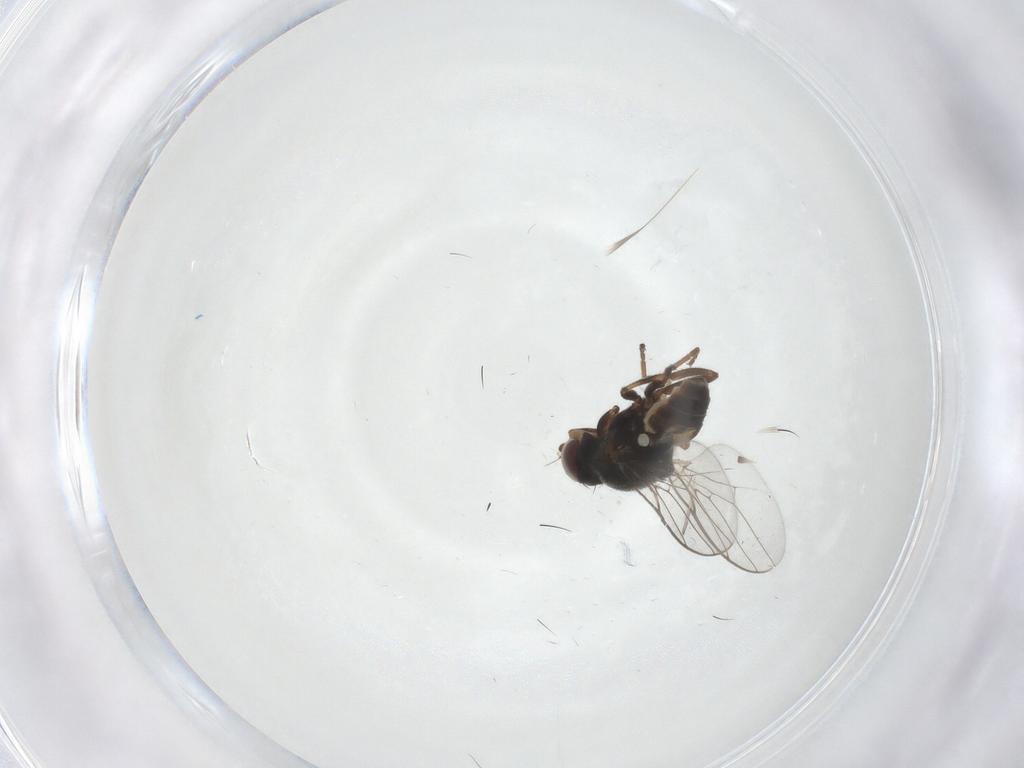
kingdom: Animalia
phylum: Arthropoda
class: Insecta
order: Diptera
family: Chloropidae
